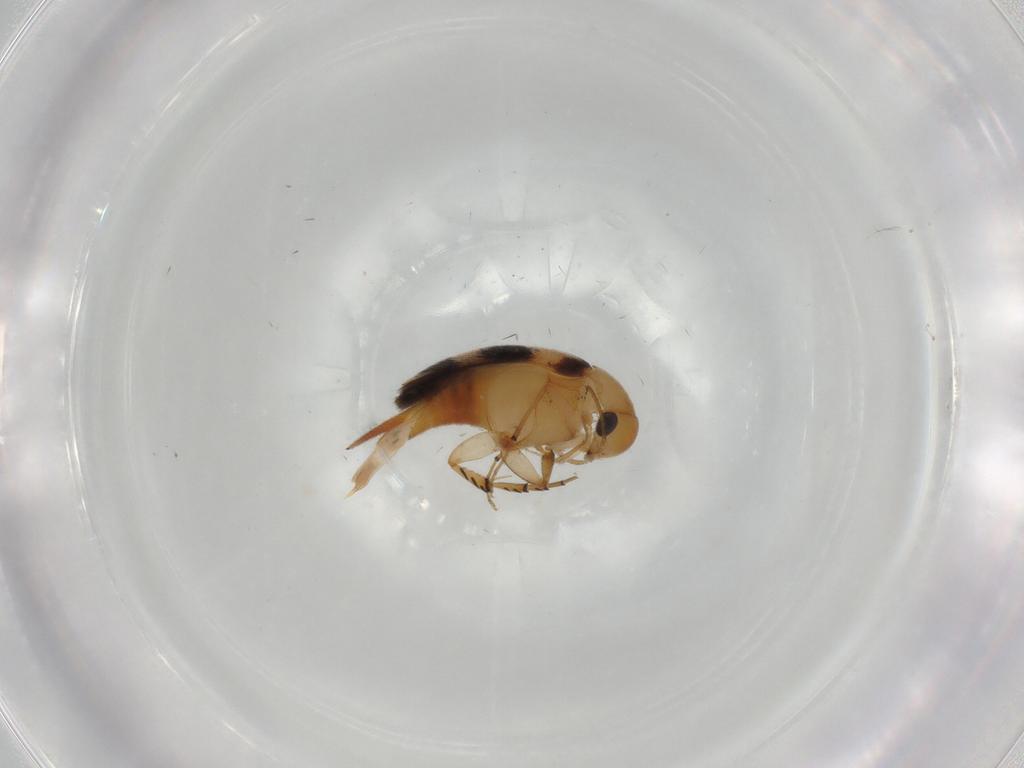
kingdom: Animalia
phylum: Arthropoda
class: Insecta
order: Coleoptera
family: Mordellidae
